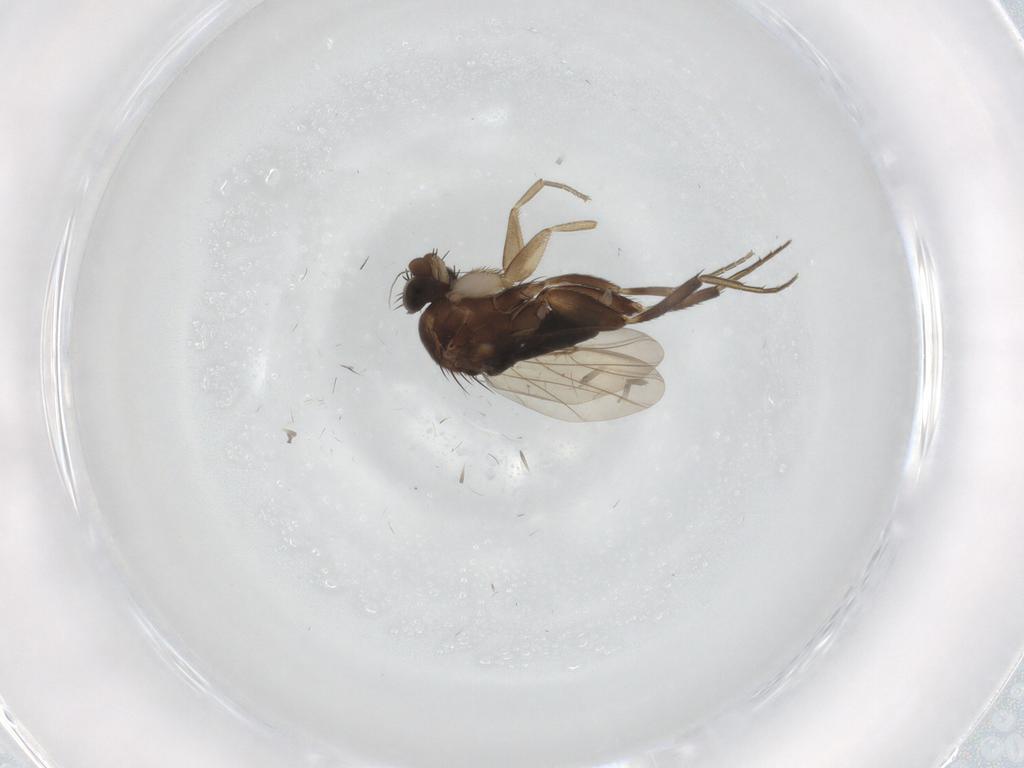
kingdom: Animalia
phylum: Arthropoda
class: Insecta
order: Diptera
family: Phoridae
